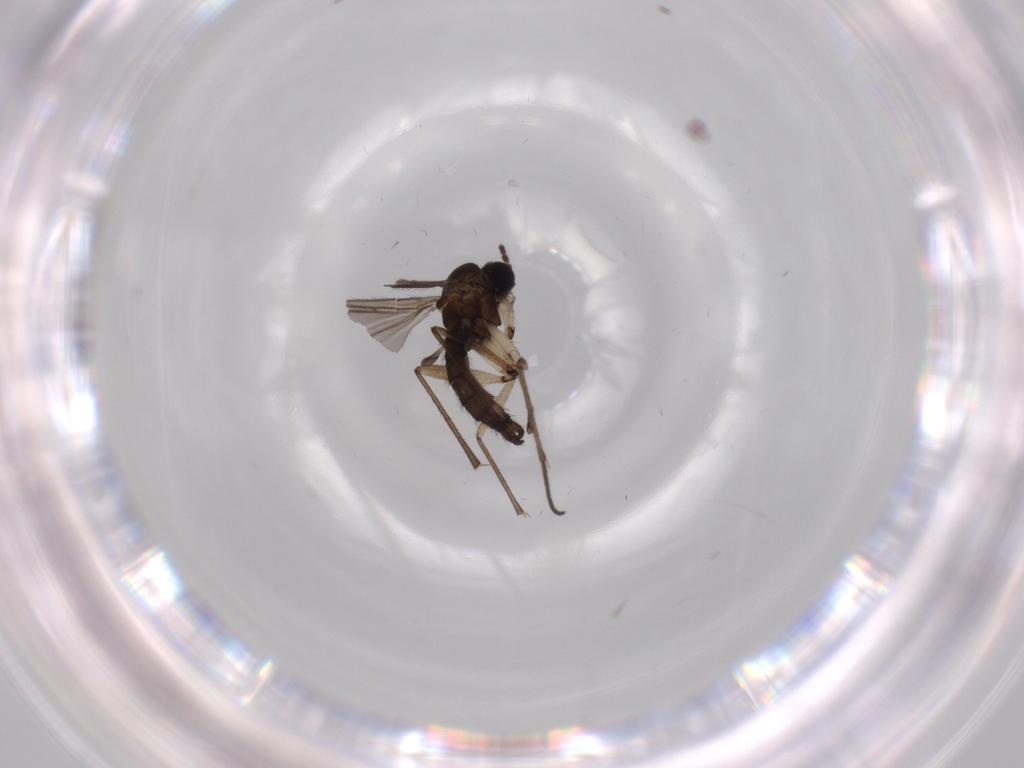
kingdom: Animalia
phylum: Arthropoda
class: Insecta
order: Diptera
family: Sciaridae
